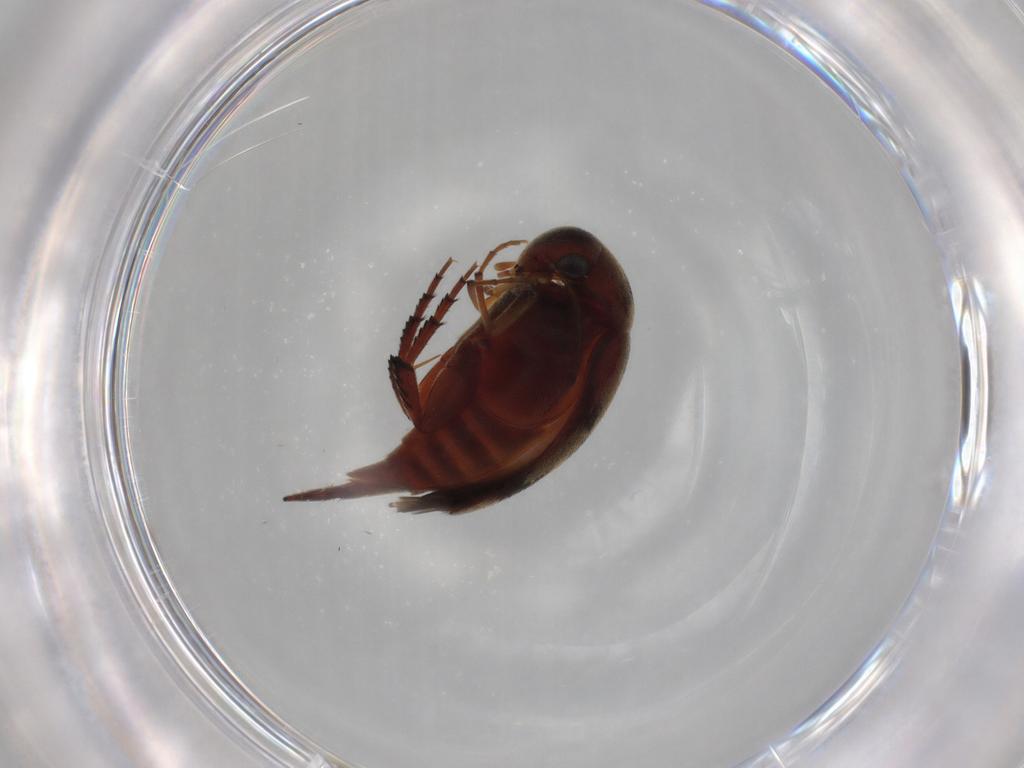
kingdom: Animalia
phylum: Arthropoda
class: Insecta
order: Coleoptera
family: Mordellidae
